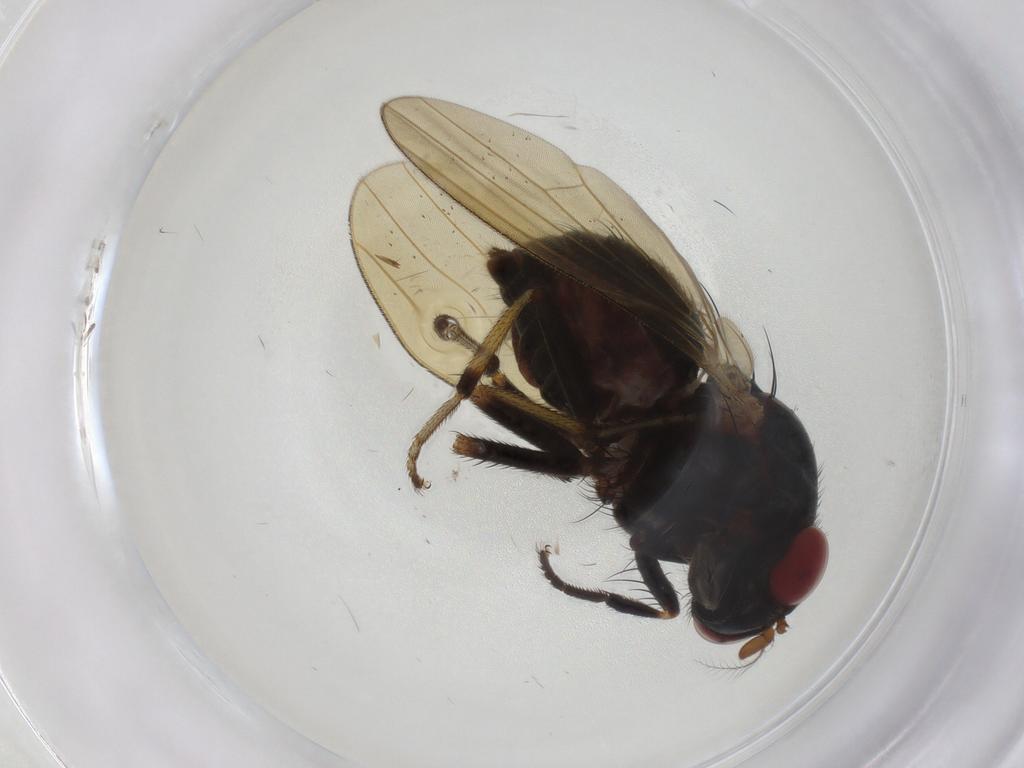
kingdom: Animalia
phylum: Arthropoda
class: Insecta
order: Diptera
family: Cecidomyiidae
